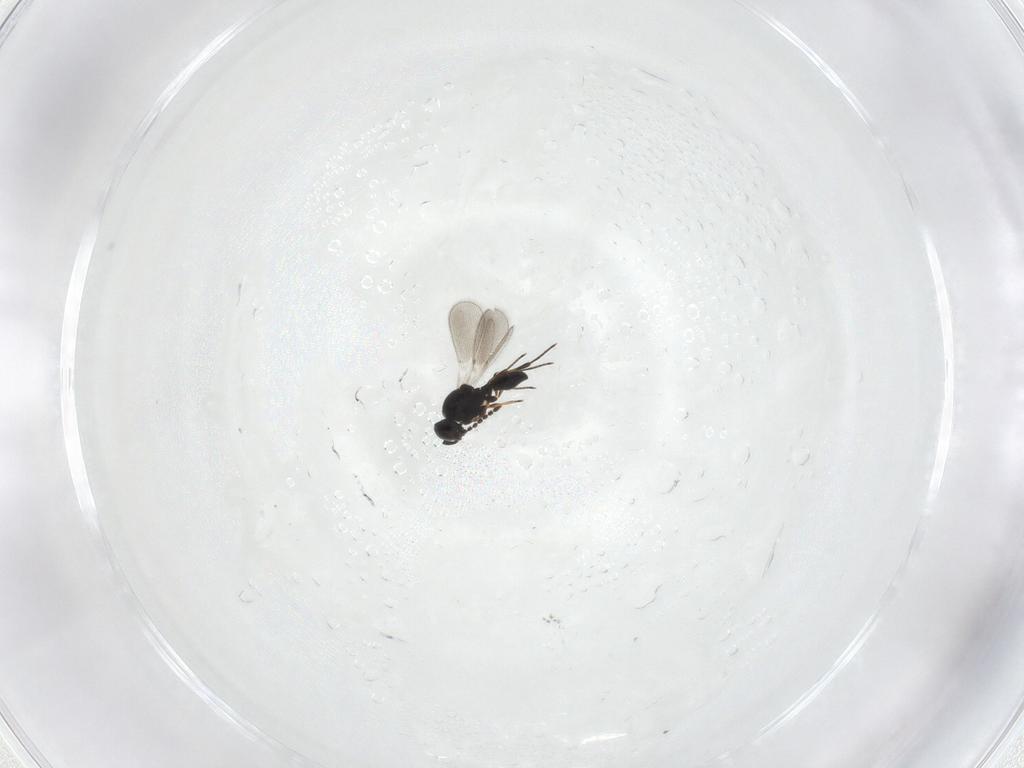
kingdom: Animalia
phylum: Arthropoda
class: Insecta
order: Hymenoptera
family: Platygastridae
